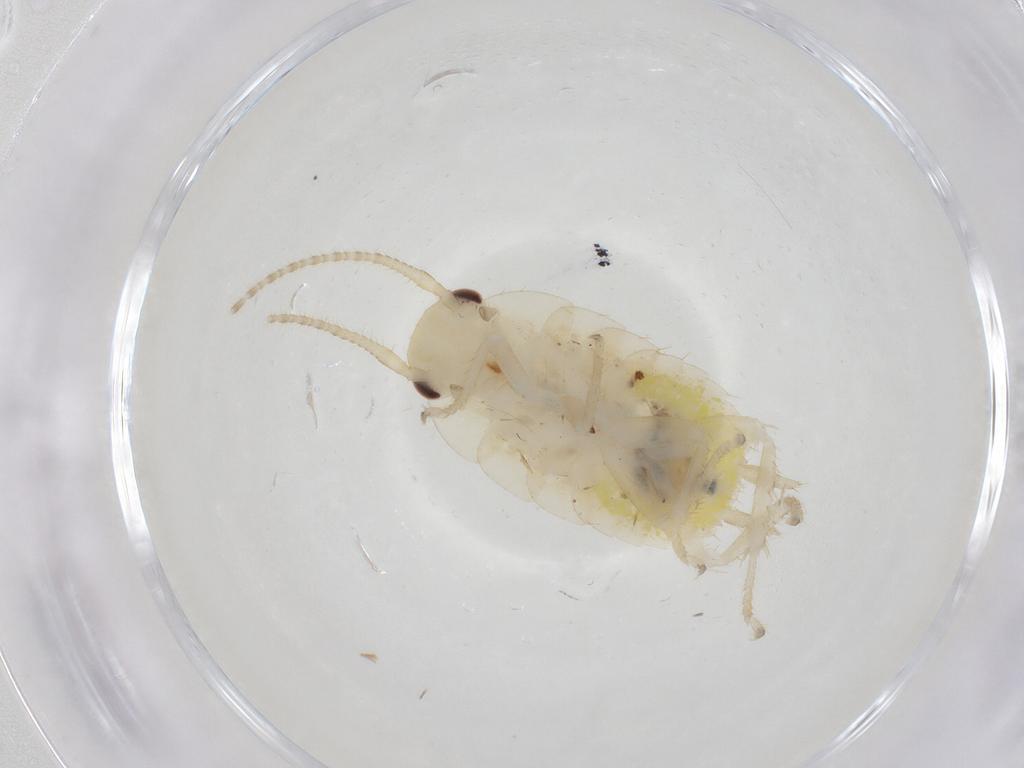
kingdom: Animalia
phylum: Arthropoda
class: Insecta
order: Blattodea
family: Ectobiidae
